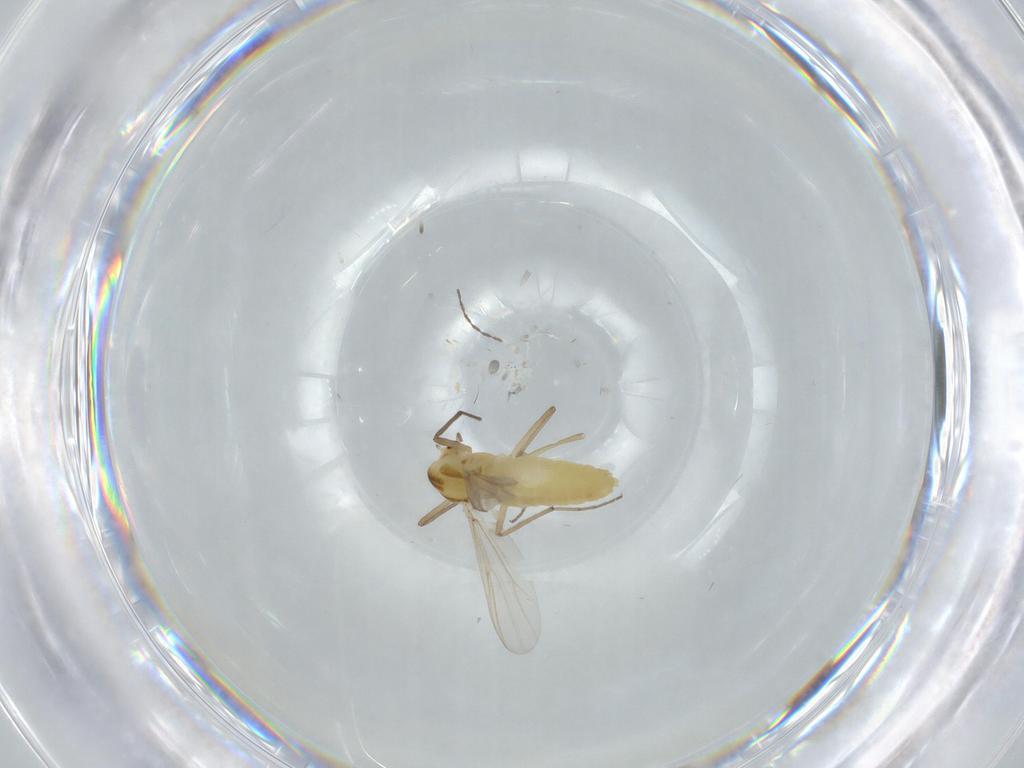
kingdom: Animalia
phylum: Arthropoda
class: Insecta
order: Diptera
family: Chironomidae
